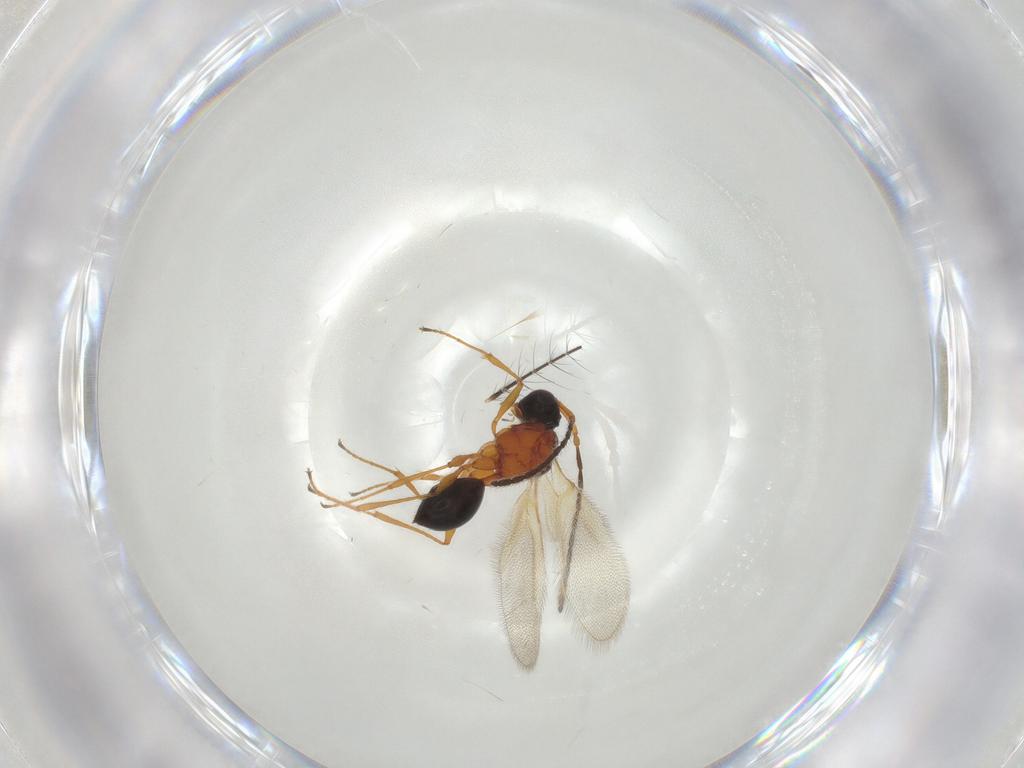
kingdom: Animalia
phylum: Arthropoda
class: Insecta
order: Hymenoptera
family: Diapriidae
